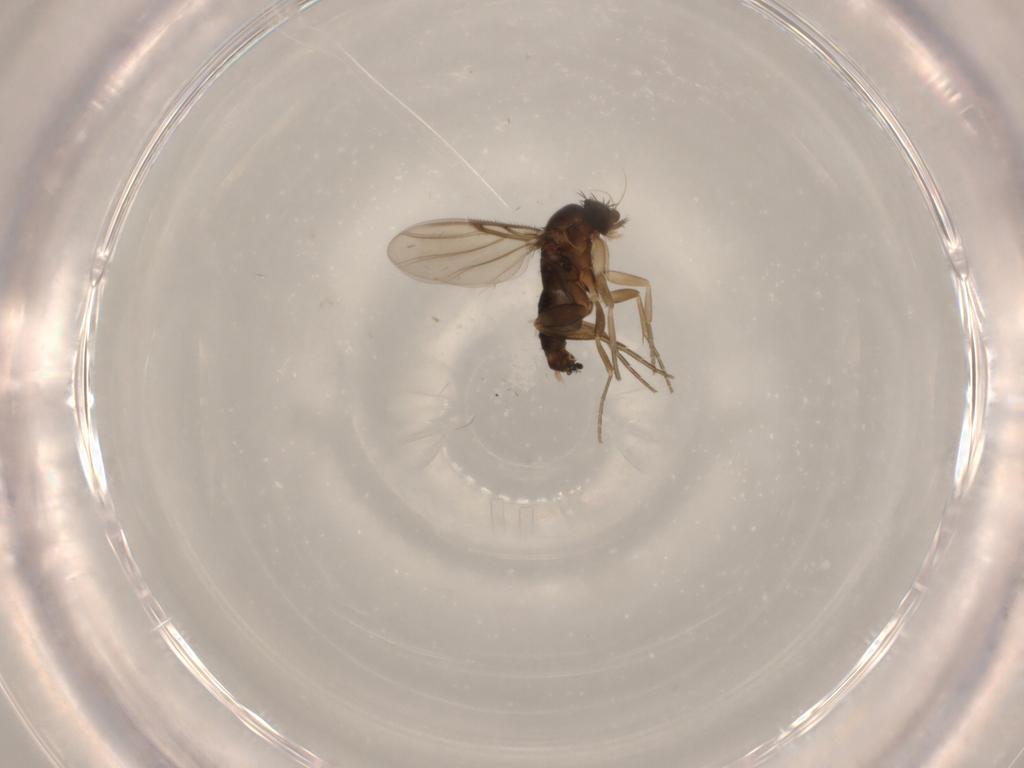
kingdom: Animalia
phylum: Arthropoda
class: Insecta
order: Diptera
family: Phoridae
